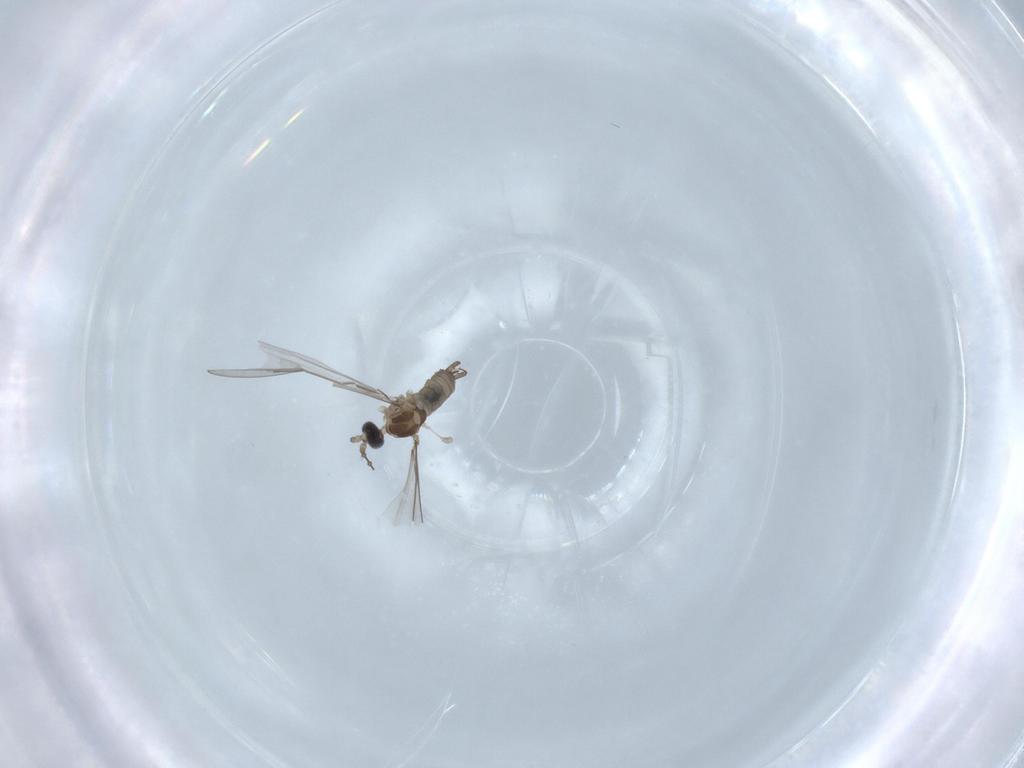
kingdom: Animalia
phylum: Arthropoda
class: Insecta
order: Diptera
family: Cecidomyiidae
